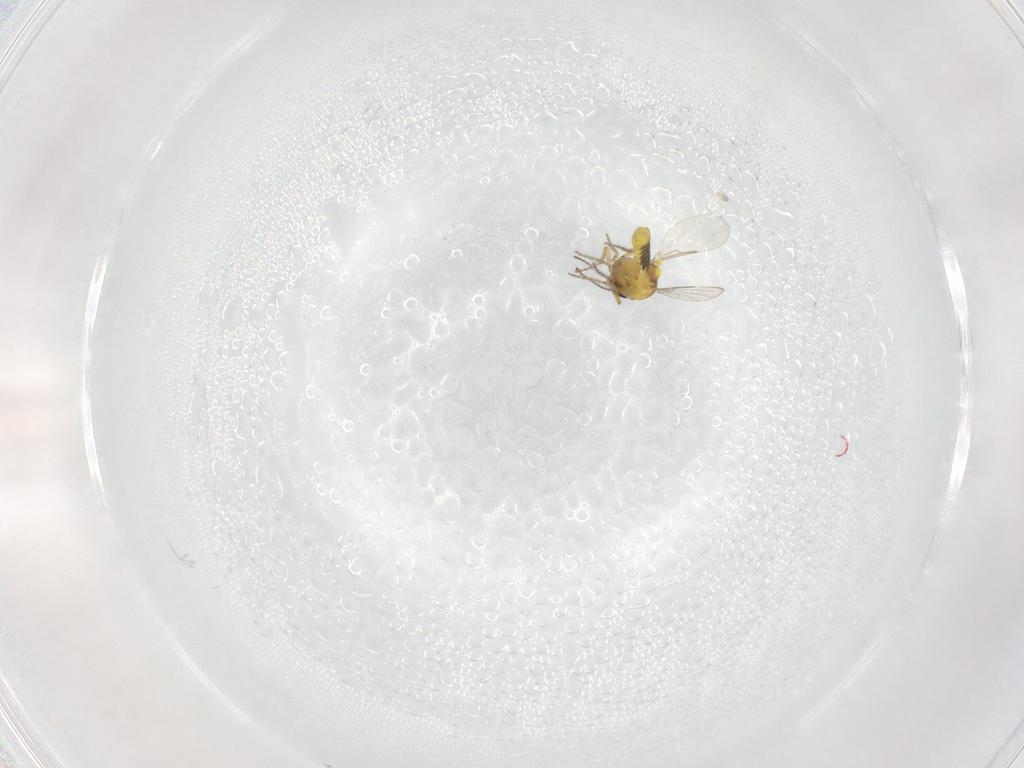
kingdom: Animalia
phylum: Arthropoda
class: Insecta
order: Diptera
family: Ceratopogonidae
